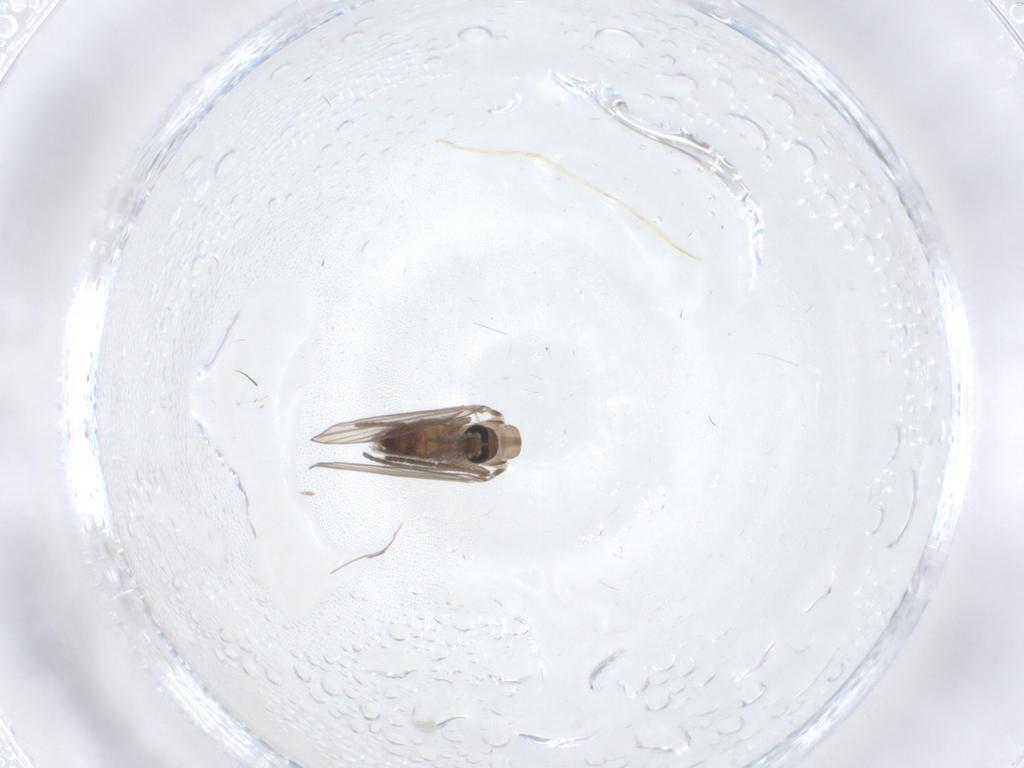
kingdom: Animalia
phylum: Arthropoda
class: Insecta
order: Diptera
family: Psychodidae
